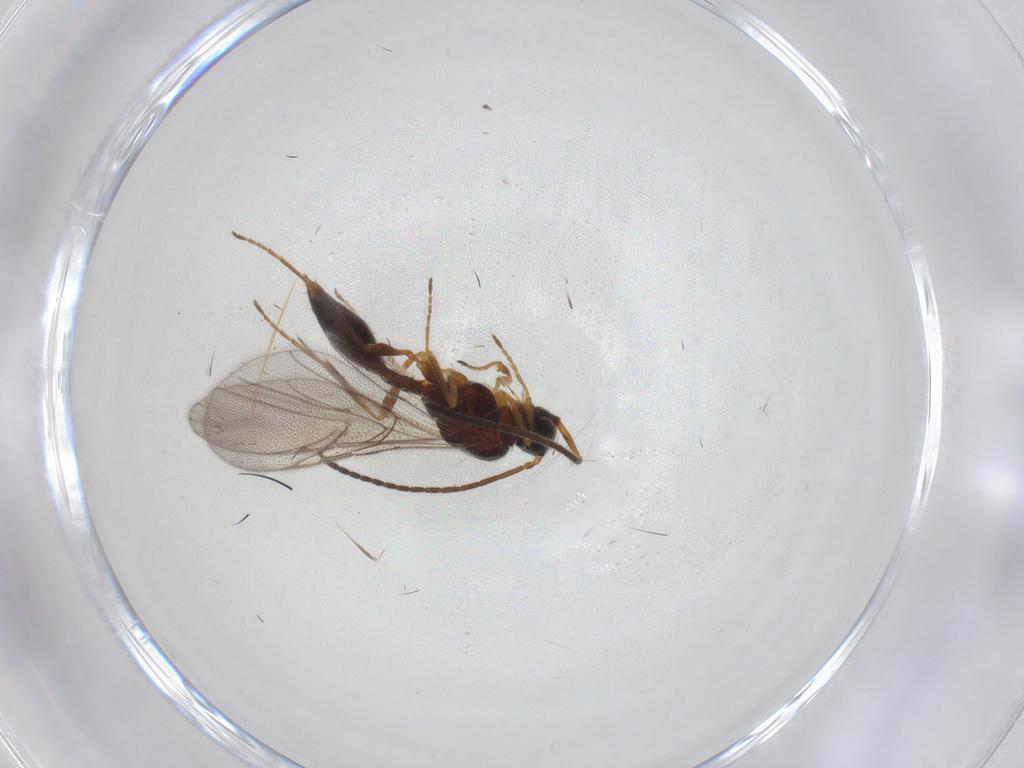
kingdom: Animalia
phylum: Arthropoda
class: Insecta
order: Hymenoptera
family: Diapriidae
